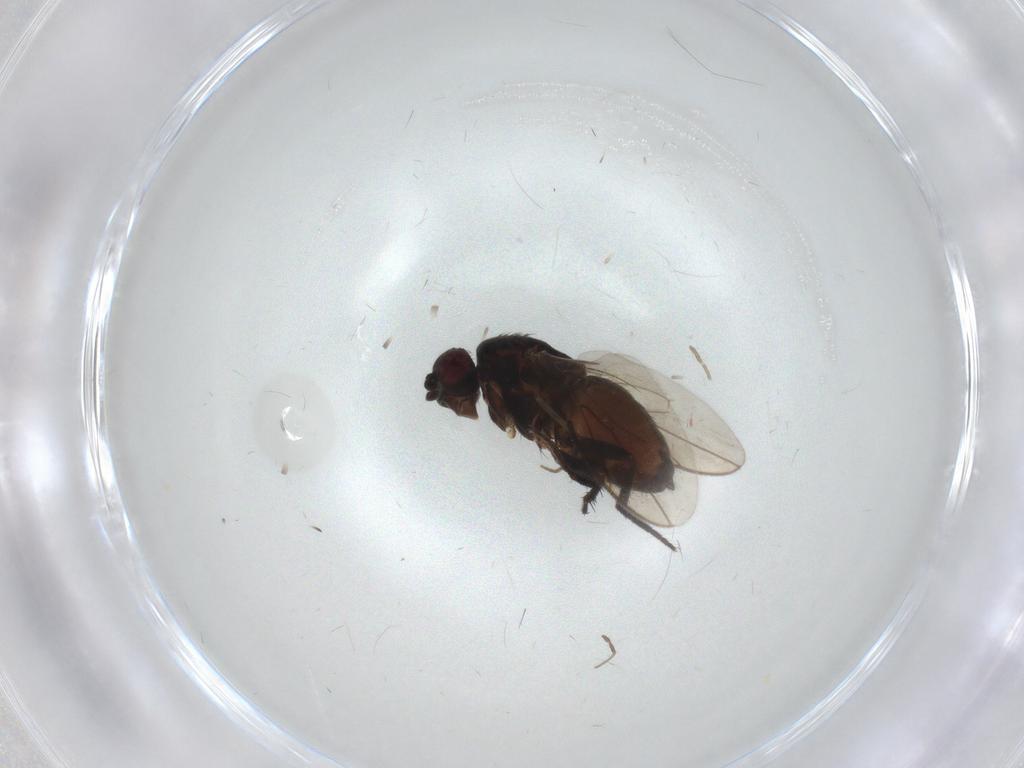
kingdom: Animalia
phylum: Arthropoda
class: Insecta
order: Diptera
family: Sphaeroceridae
